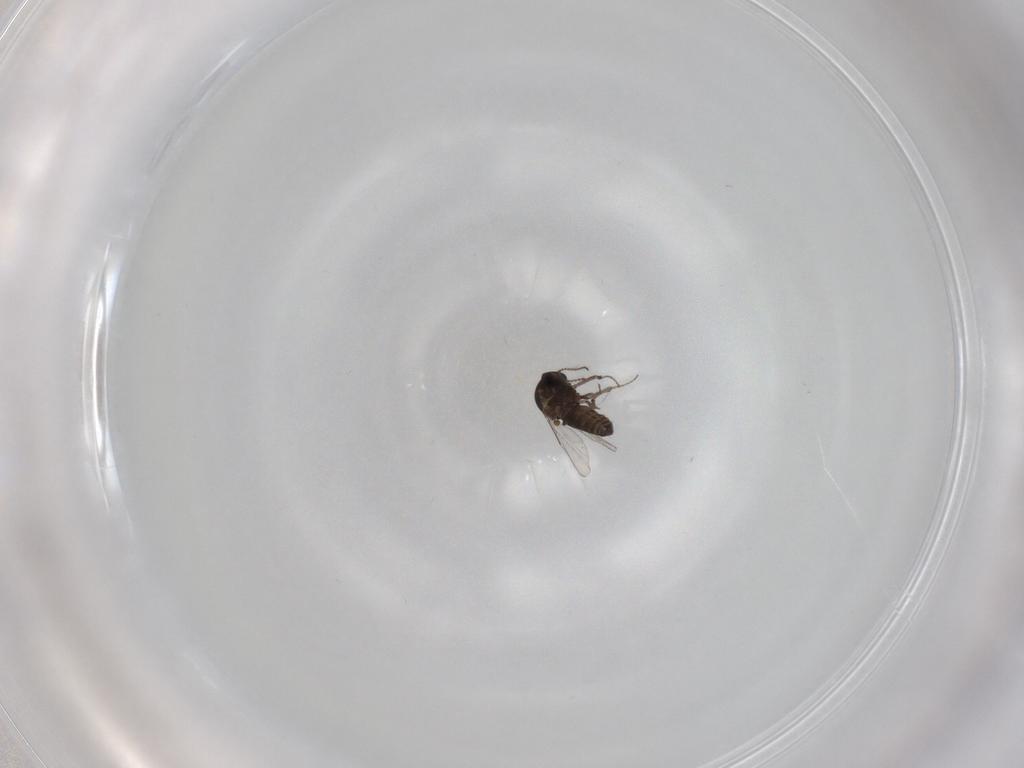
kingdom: Animalia
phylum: Arthropoda
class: Insecta
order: Diptera
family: Ceratopogonidae
